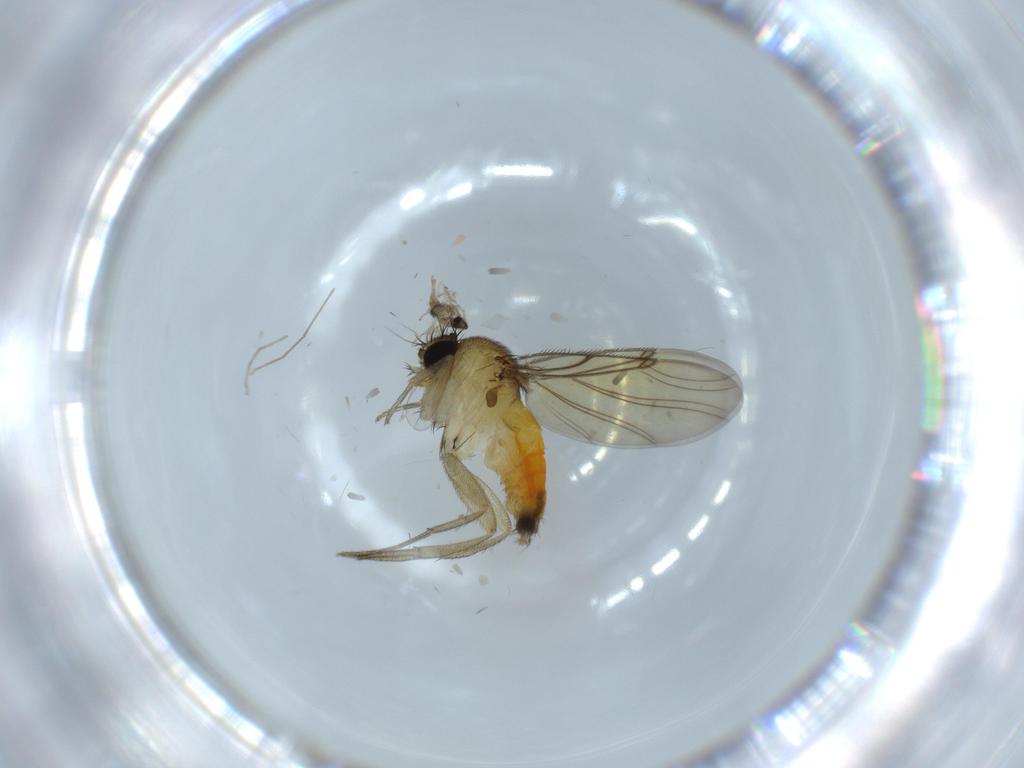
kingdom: Animalia
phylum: Arthropoda
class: Insecta
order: Diptera
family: Cecidomyiidae
